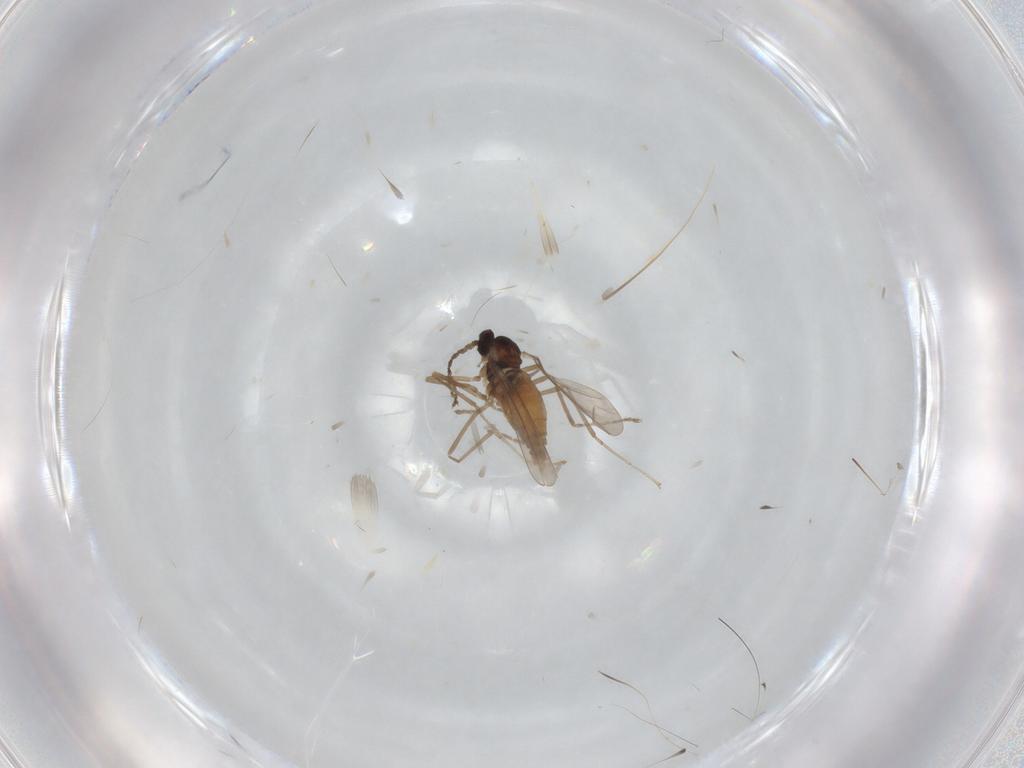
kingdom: Animalia
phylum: Arthropoda
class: Insecta
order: Diptera
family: Cecidomyiidae
